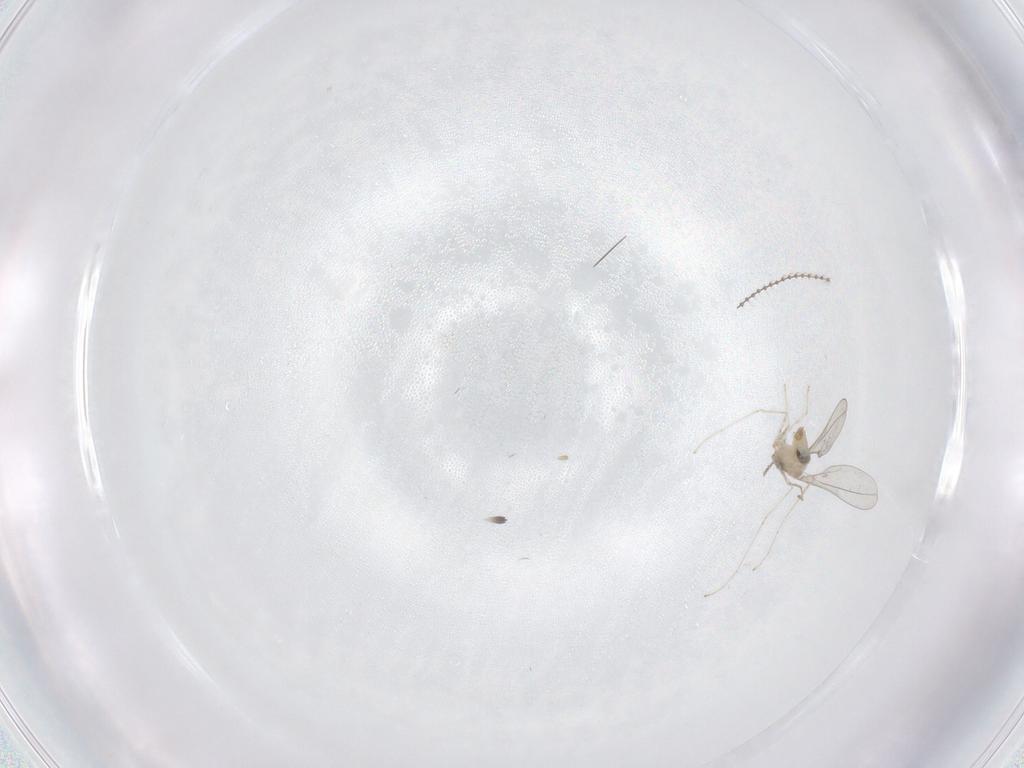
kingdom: Animalia
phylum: Arthropoda
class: Insecta
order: Diptera
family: Cecidomyiidae
